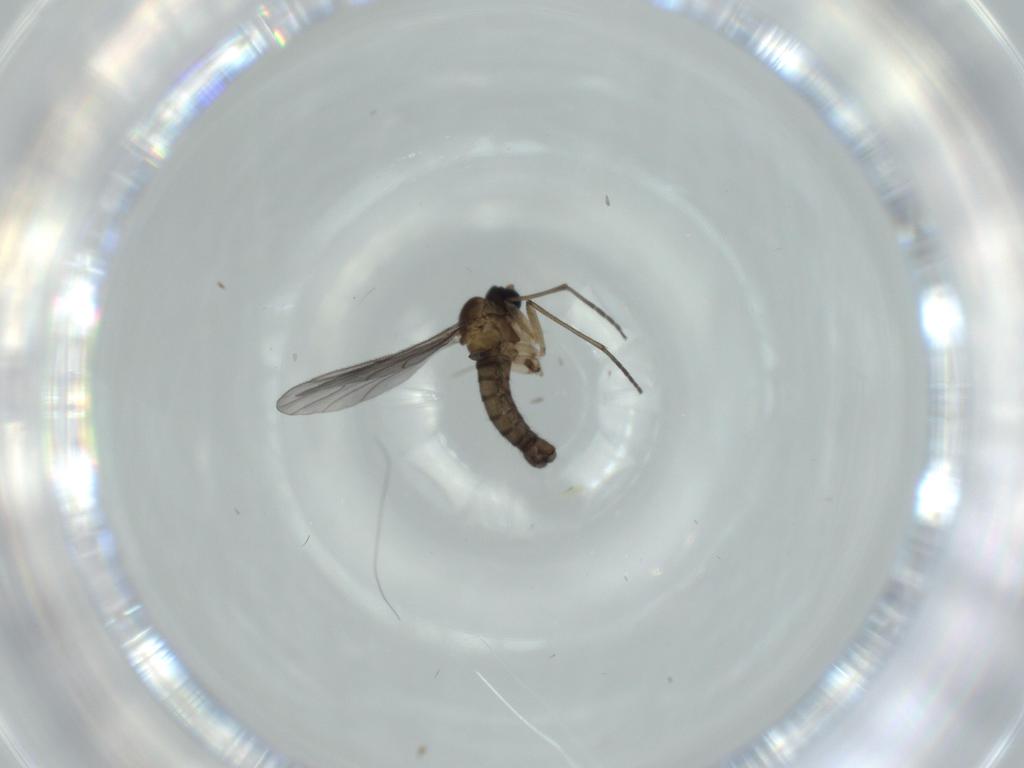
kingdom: Animalia
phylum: Arthropoda
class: Insecta
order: Diptera
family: Sciaridae
